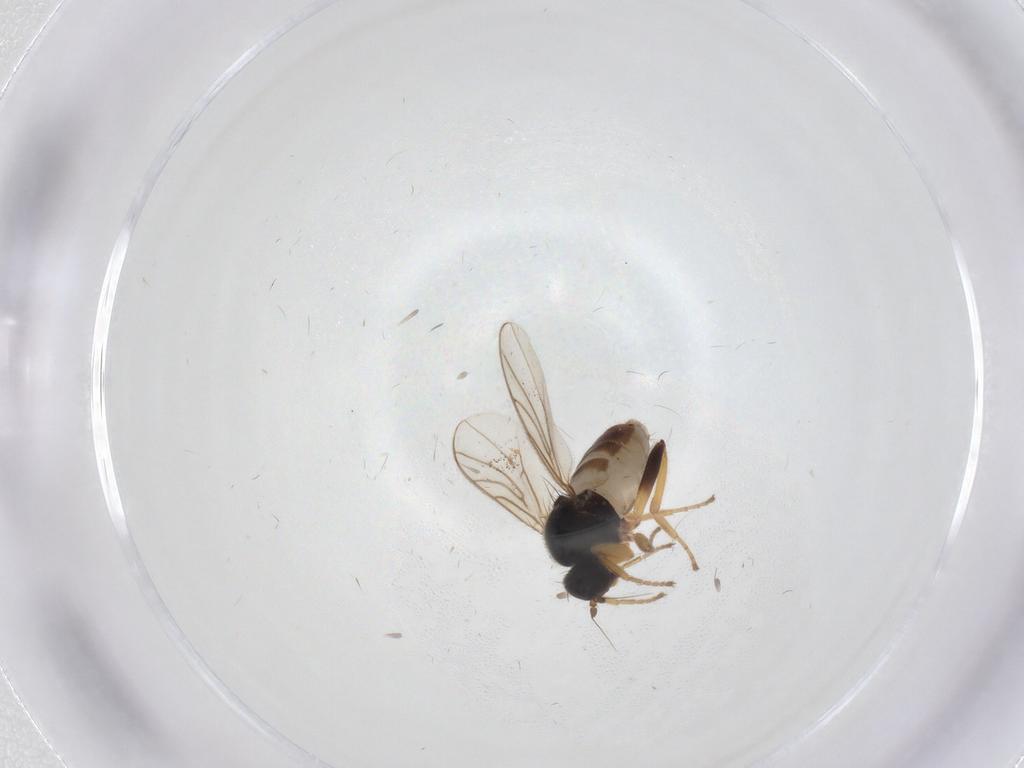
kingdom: Animalia
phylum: Arthropoda
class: Insecta
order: Diptera
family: Hybotidae
